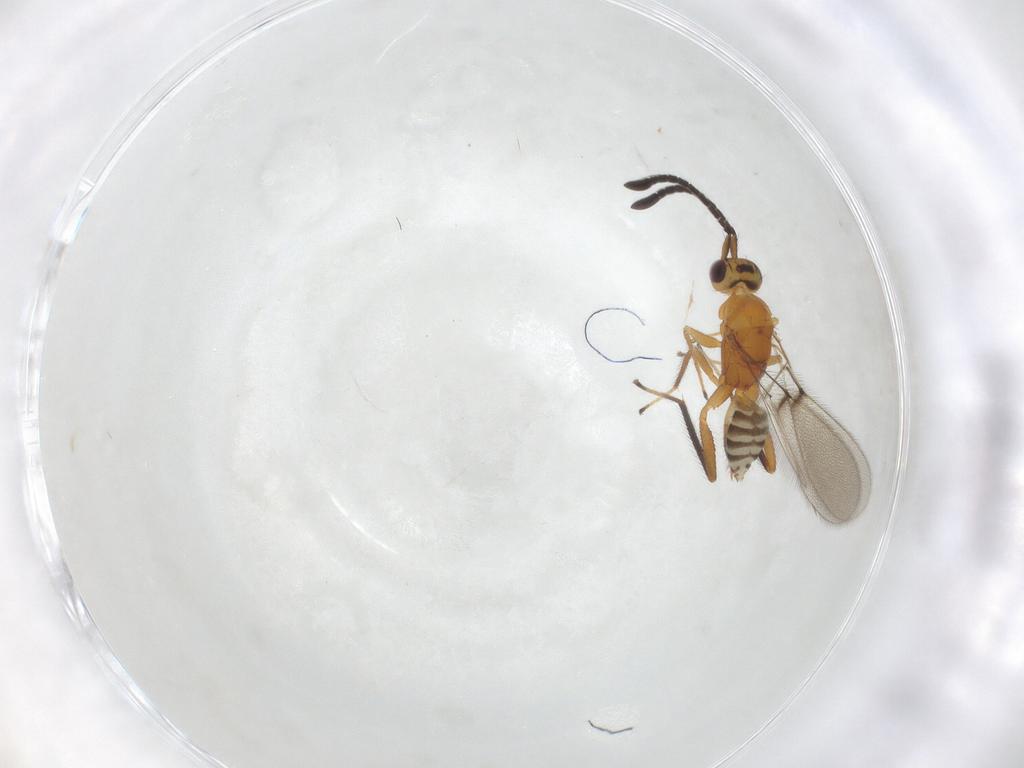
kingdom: Animalia
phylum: Arthropoda
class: Insecta
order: Hymenoptera
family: Mymaridae
